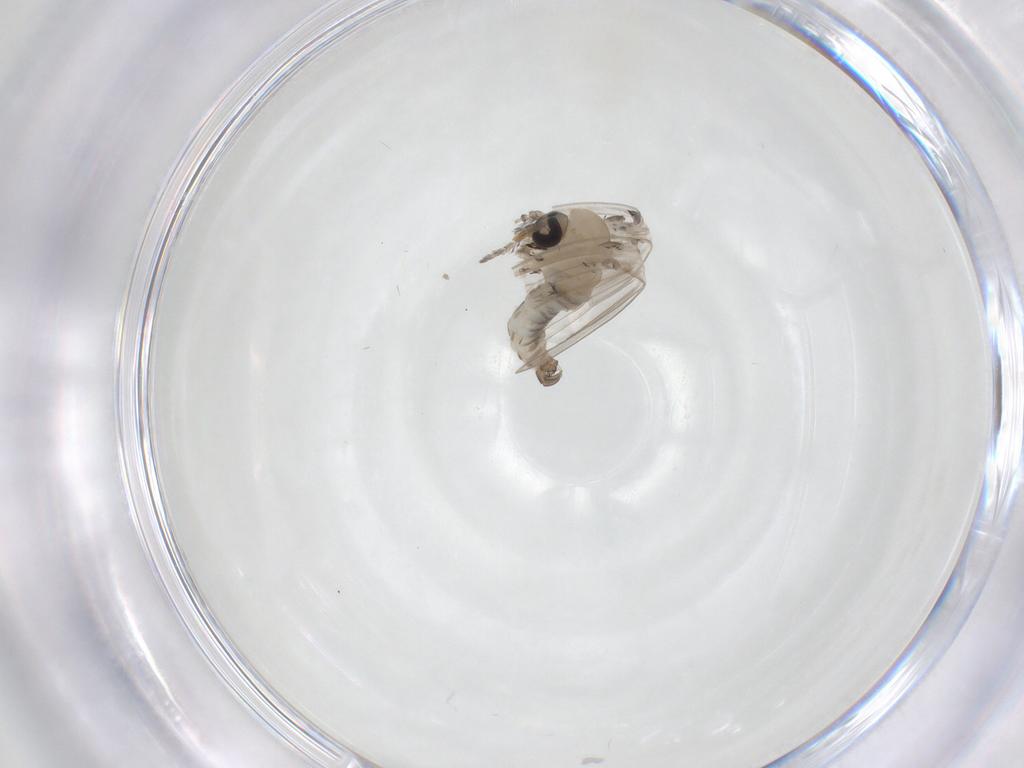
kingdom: Animalia
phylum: Arthropoda
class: Insecta
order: Diptera
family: Psychodidae
